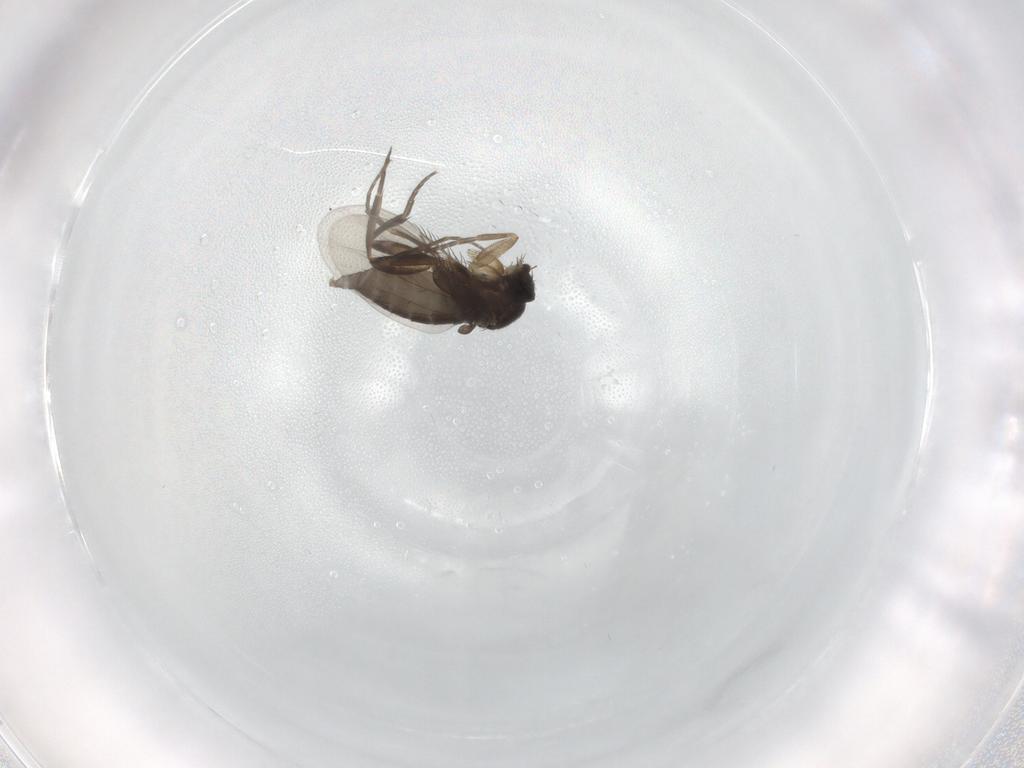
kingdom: Animalia
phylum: Arthropoda
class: Insecta
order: Diptera
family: Phoridae
